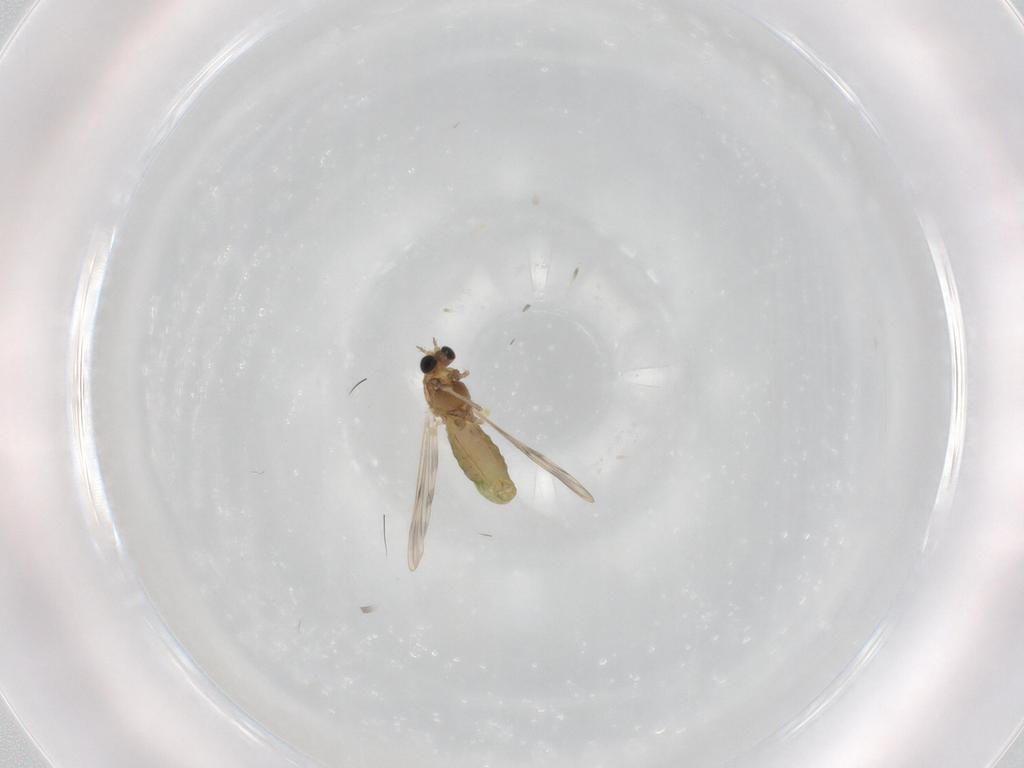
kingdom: Animalia
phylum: Arthropoda
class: Insecta
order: Diptera
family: Chironomidae
